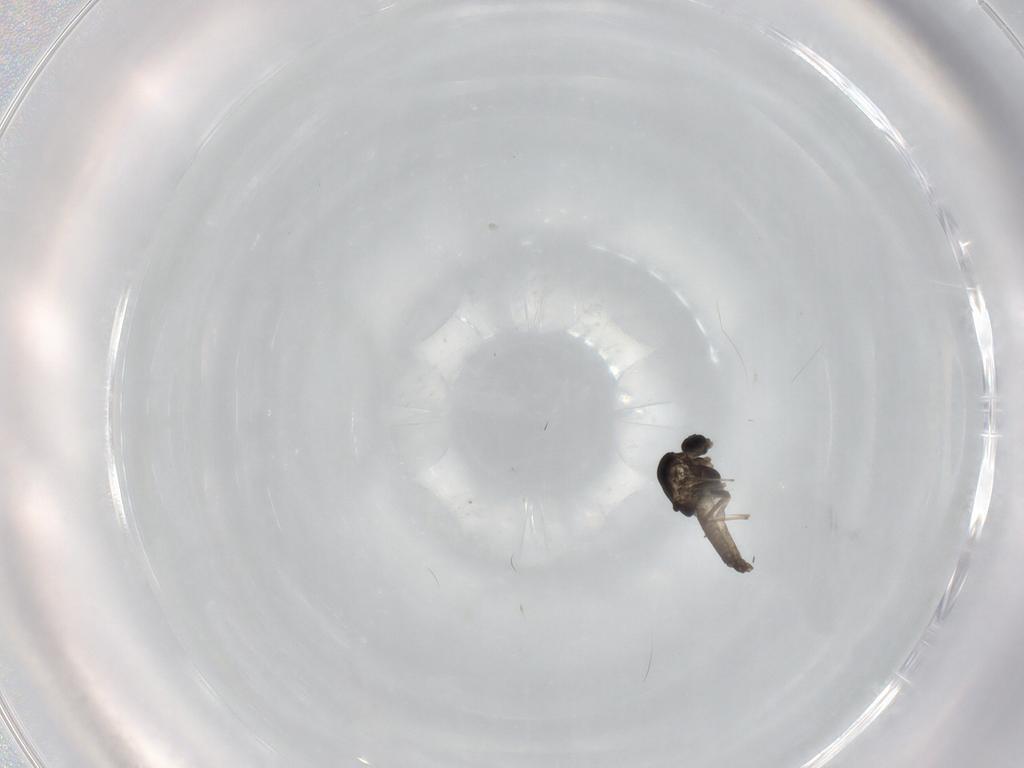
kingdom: Animalia
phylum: Arthropoda
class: Insecta
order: Diptera
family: Chironomidae
